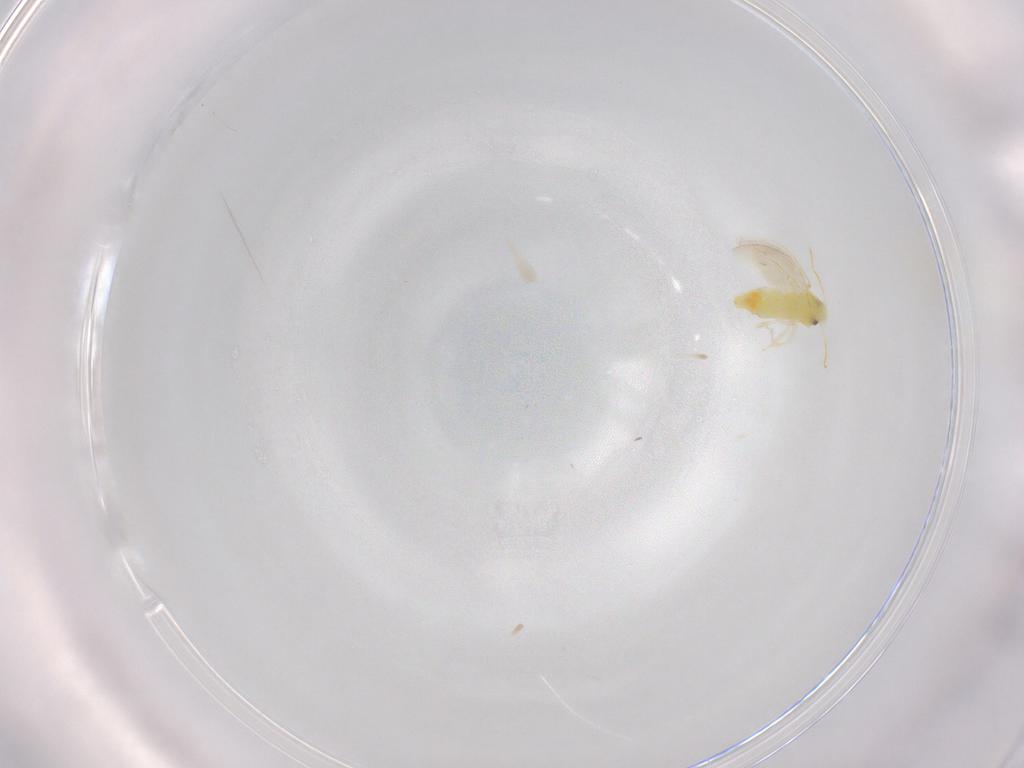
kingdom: Animalia
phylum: Arthropoda
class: Insecta
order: Hemiptera
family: Aleyrodidae
